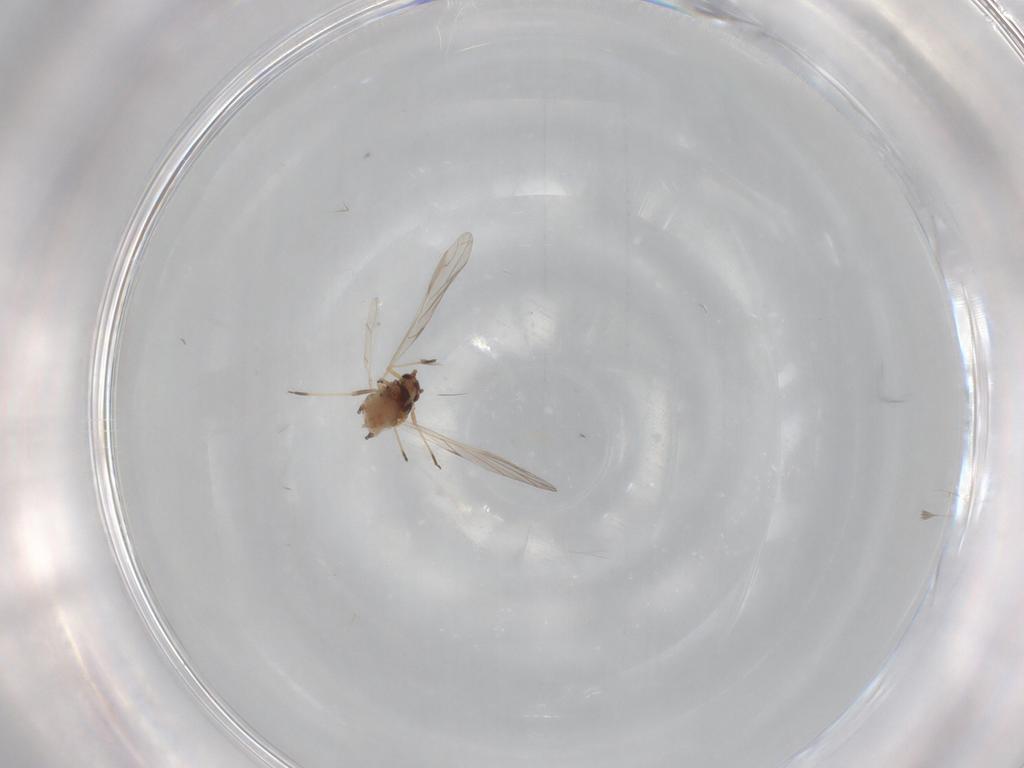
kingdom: Animalia
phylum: Arthropoda
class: Insecta
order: Hemiptera
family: Aphididae
